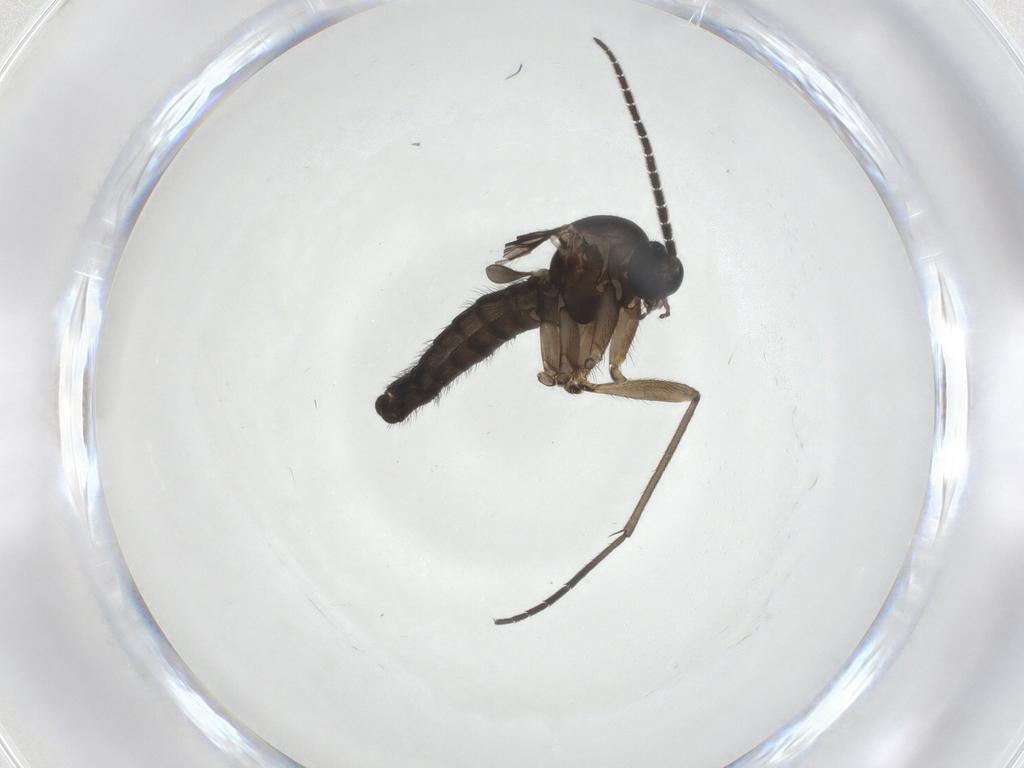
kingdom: Animalia
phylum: Arthropoda
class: Insecta
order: Diptera
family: Sciaridae
